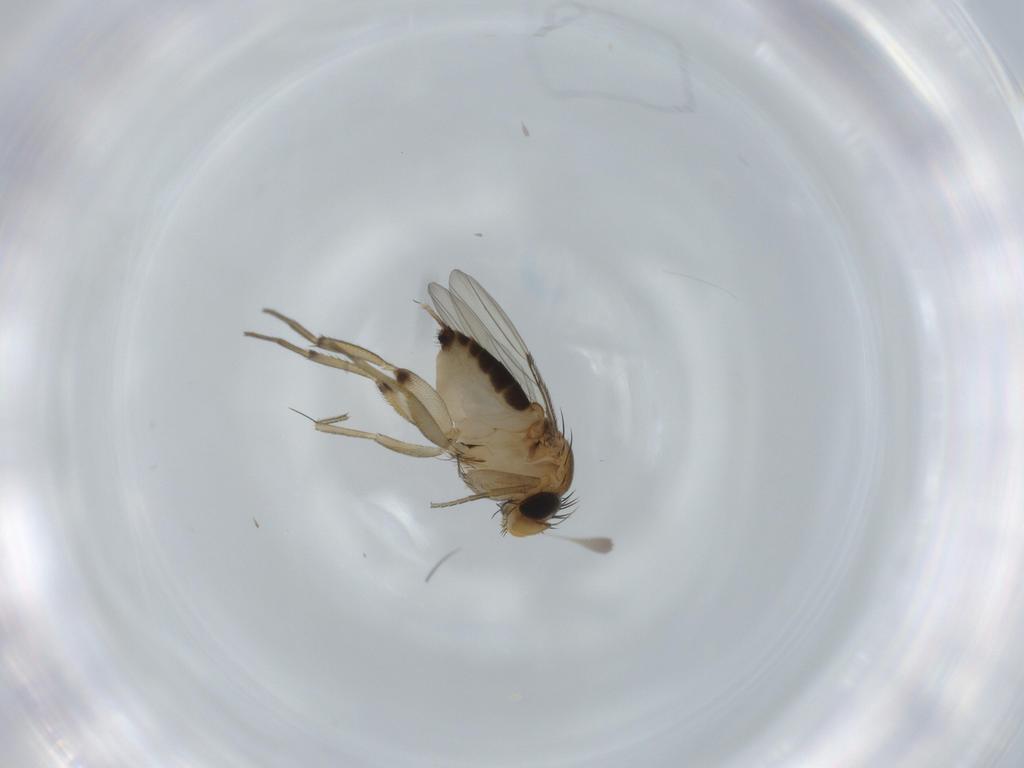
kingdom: Animalia
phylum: Arthropoda
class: Insecta
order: Diptera
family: Phoridae
